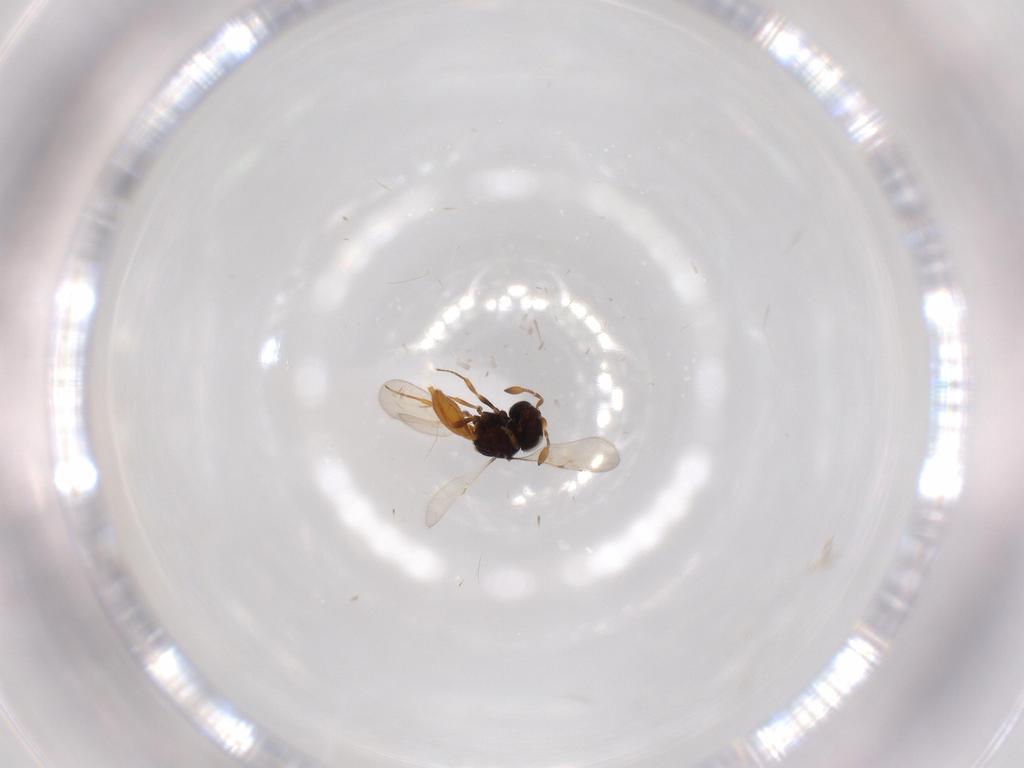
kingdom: Animalia
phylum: Arthropoda
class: Insecta
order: Hymenoptera
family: Scelionidae
